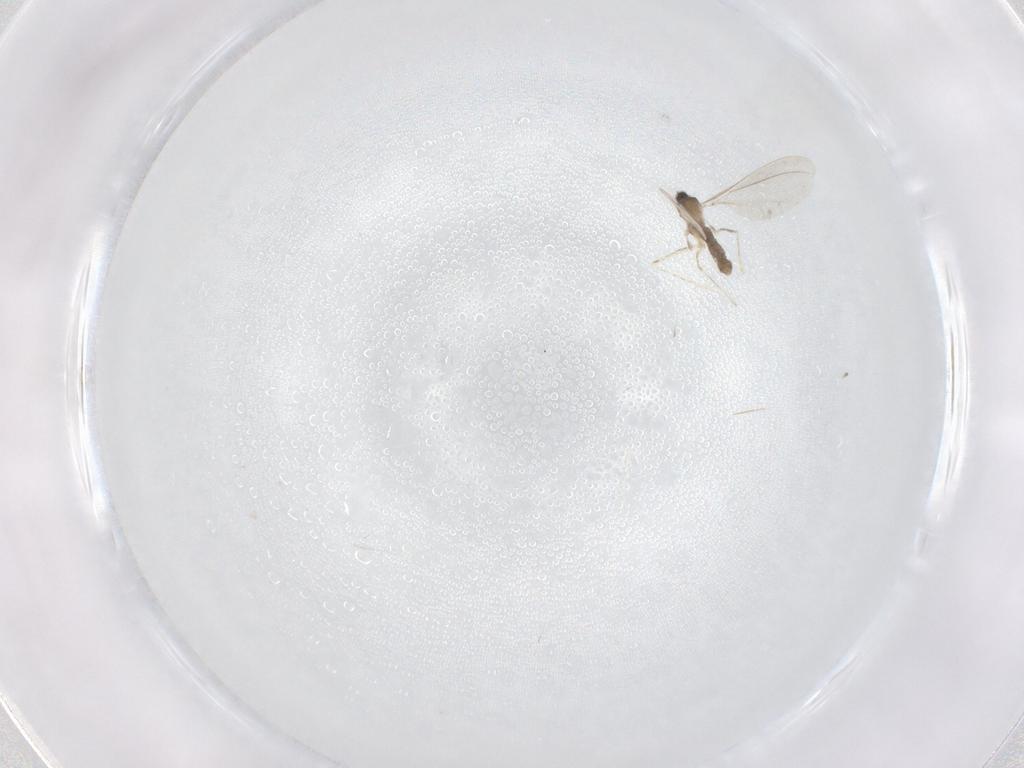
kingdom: Animalia
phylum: Arthropoda
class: Insecta
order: Diptera
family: Cecidomyiidae
